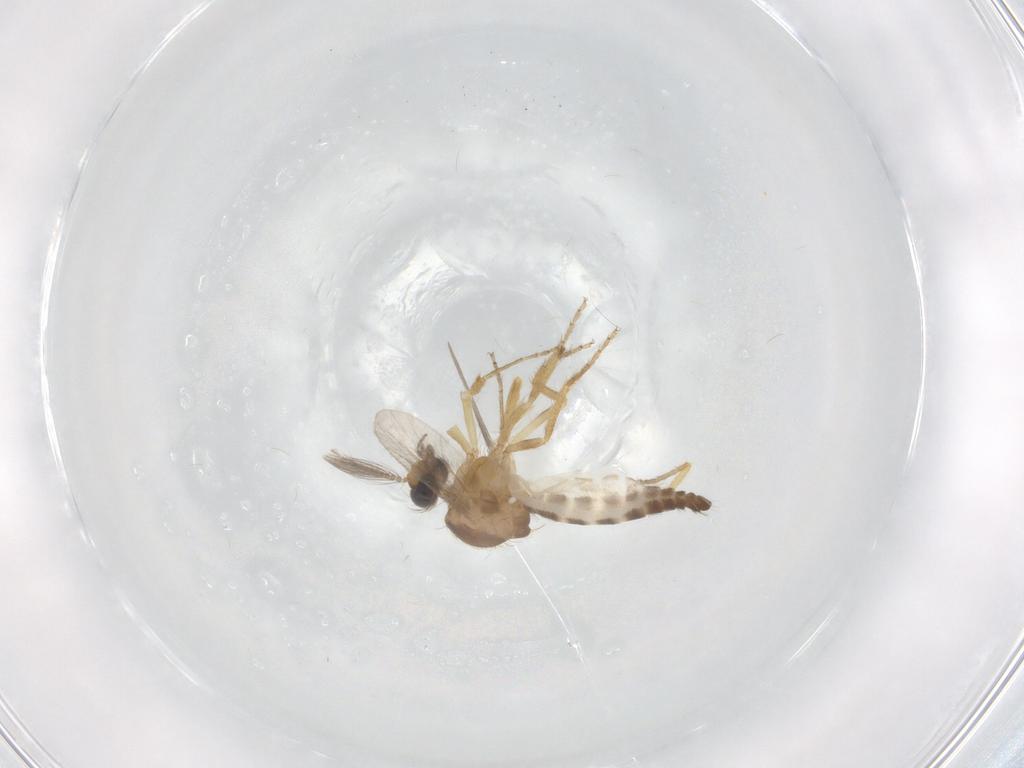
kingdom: Animalia
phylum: Arthropoda
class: Insecta
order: Diptera
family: Ceratopogonidae
